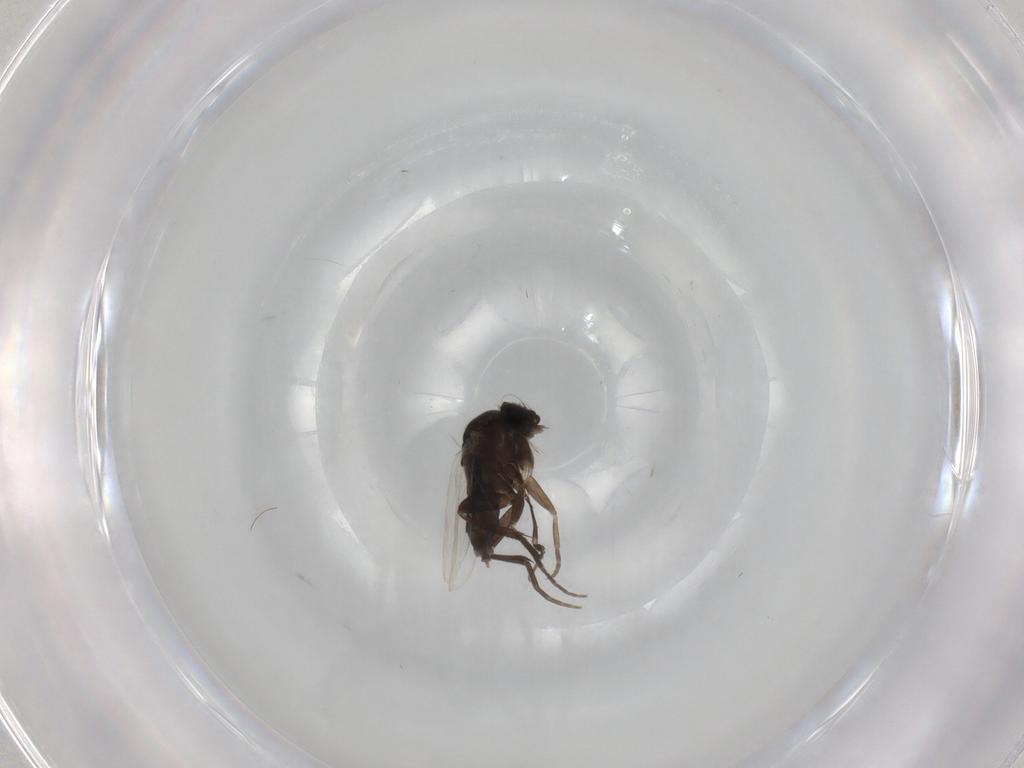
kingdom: Animalia
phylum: Arthropoda
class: Insecta
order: Diptera
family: Phoridae
